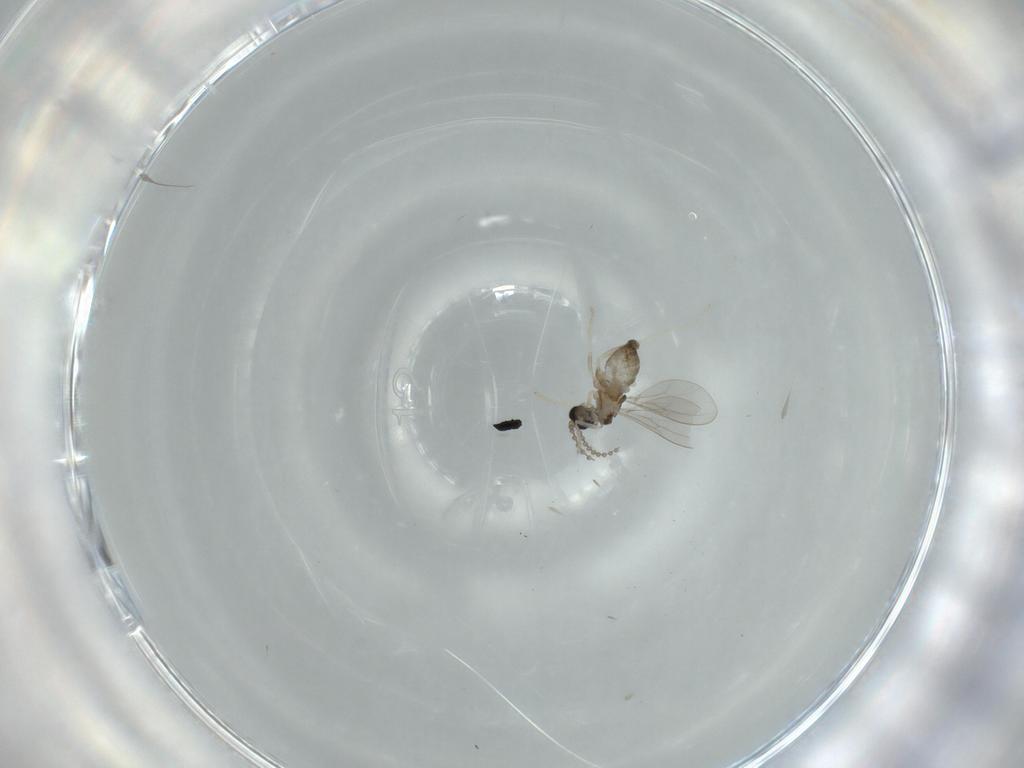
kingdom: Animalia
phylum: Arthropoda
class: Insecta
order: Diptera
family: Cecidomyiidae
